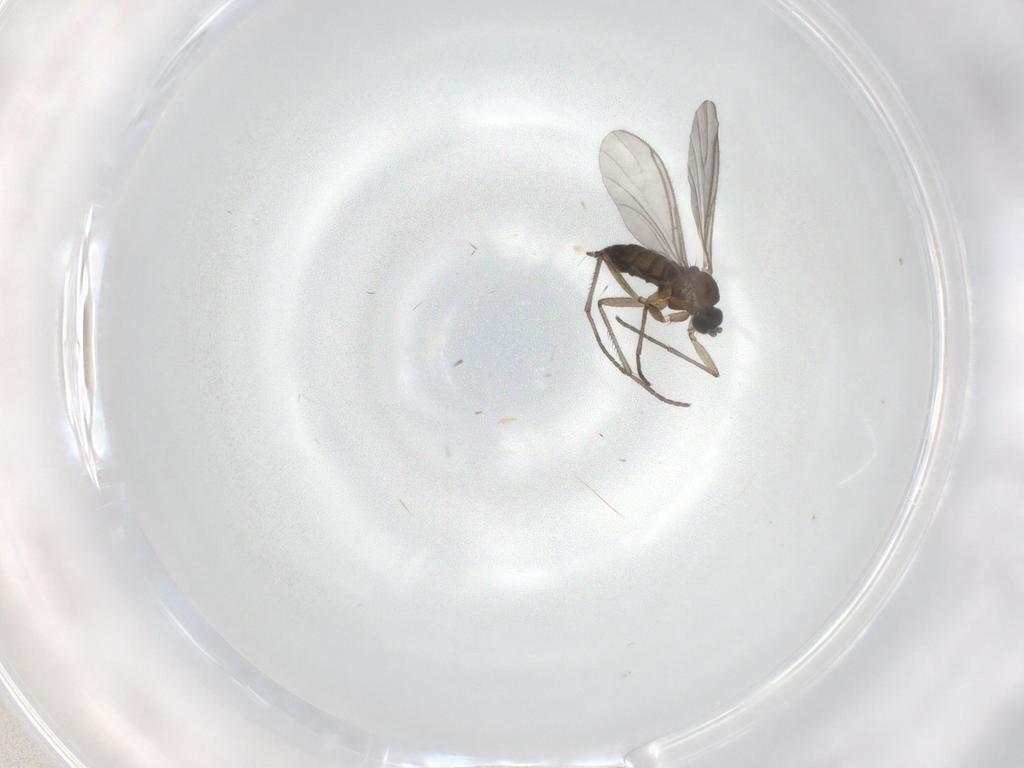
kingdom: Animalia
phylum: Arthropoda
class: Insecta
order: Diptera
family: Sciaridae
